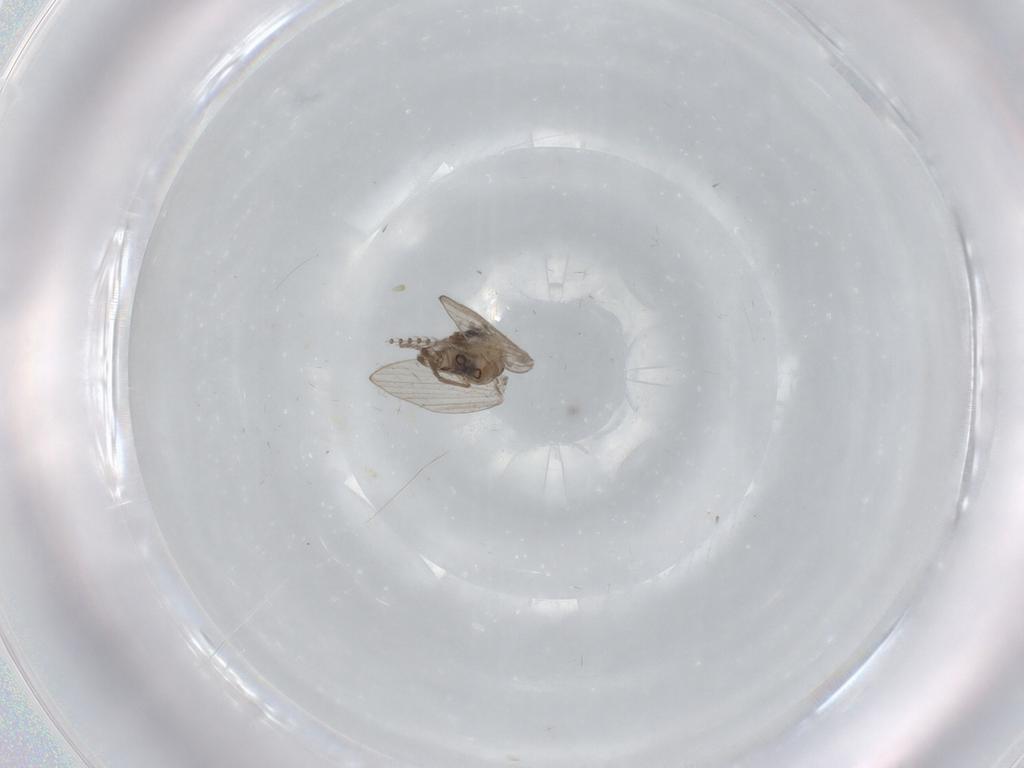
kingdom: Animalia
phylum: Arthropoda
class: Insecta
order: Diptera
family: Psychodidae
